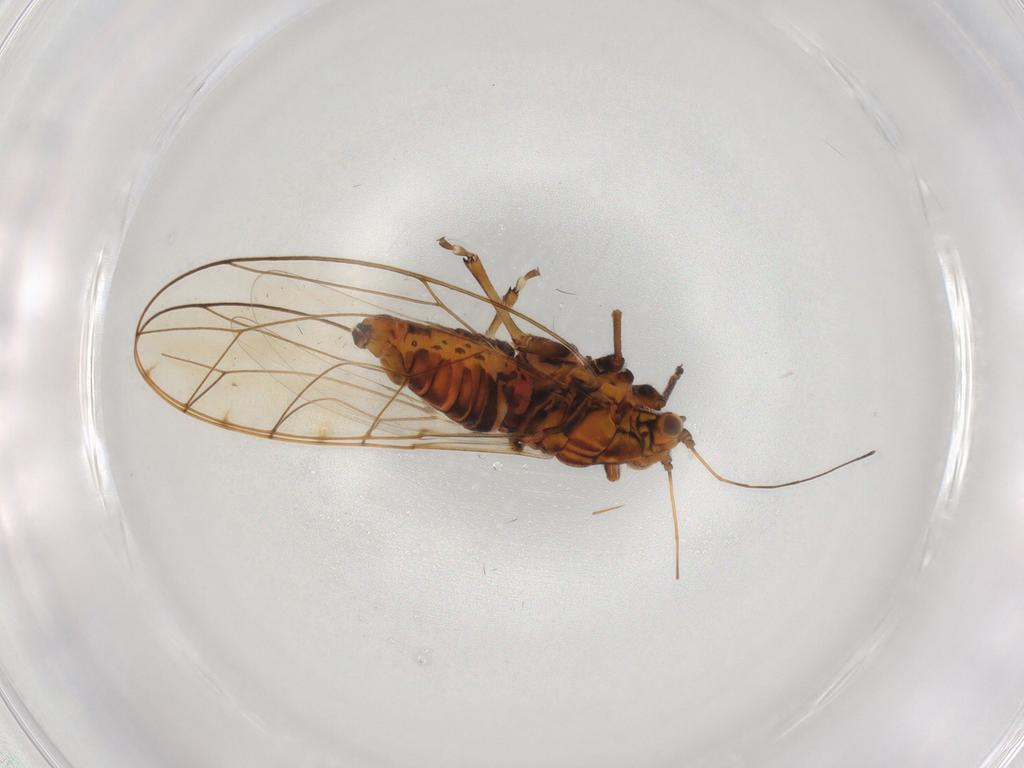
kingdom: Animalia
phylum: Arthropoda
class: Insecta
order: Hemiptera
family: Triozidae
